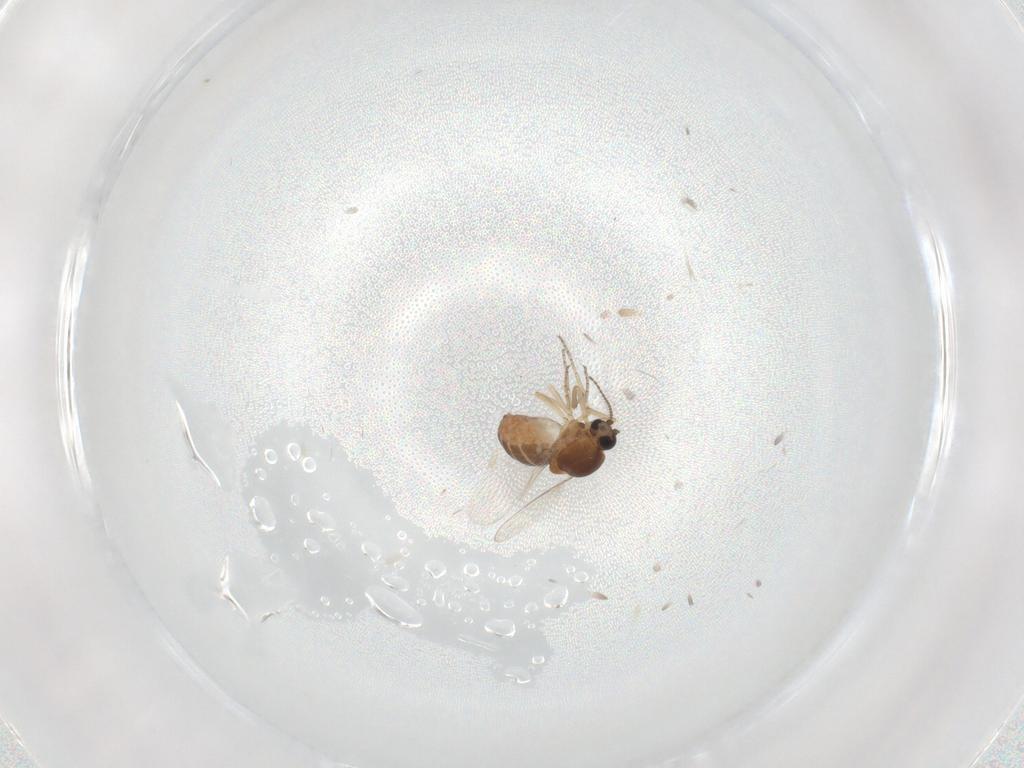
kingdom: Animalia
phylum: Arthropoda
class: Insecta
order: Diptera
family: Ceratopogonidae
